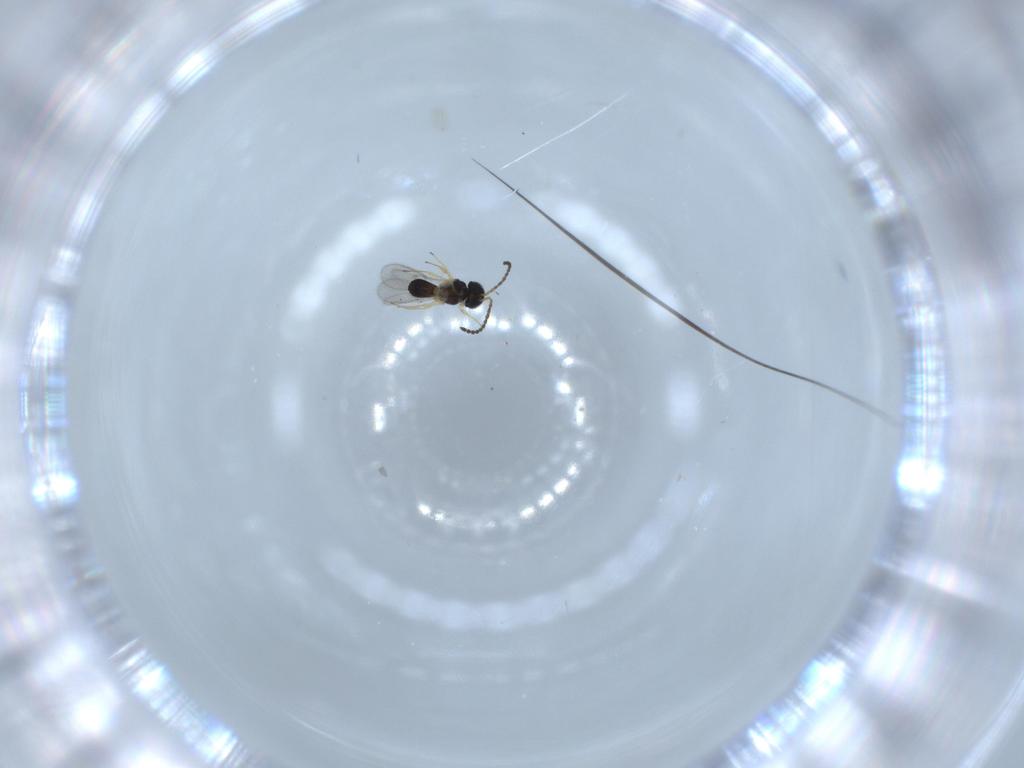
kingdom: Animalia
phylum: Arthropoda
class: Insecta
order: Hymenoptera
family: Scelionidae
